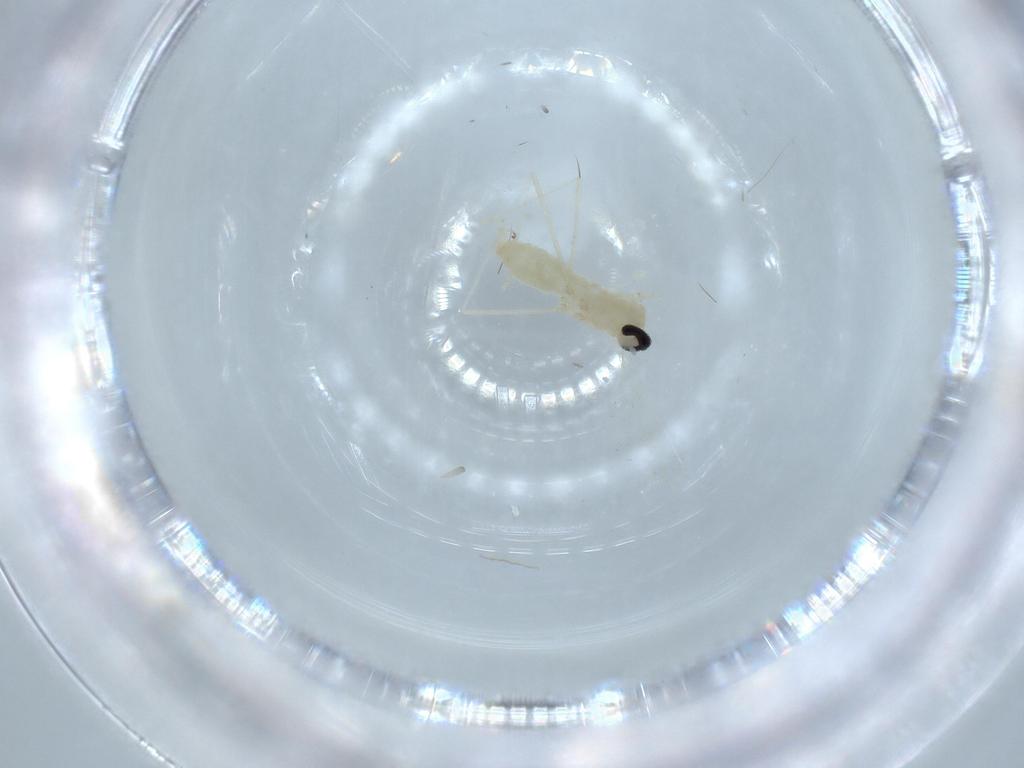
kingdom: Animalia
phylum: Arthropoda
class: Insecta
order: Diptera
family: Cecidomyiidae
